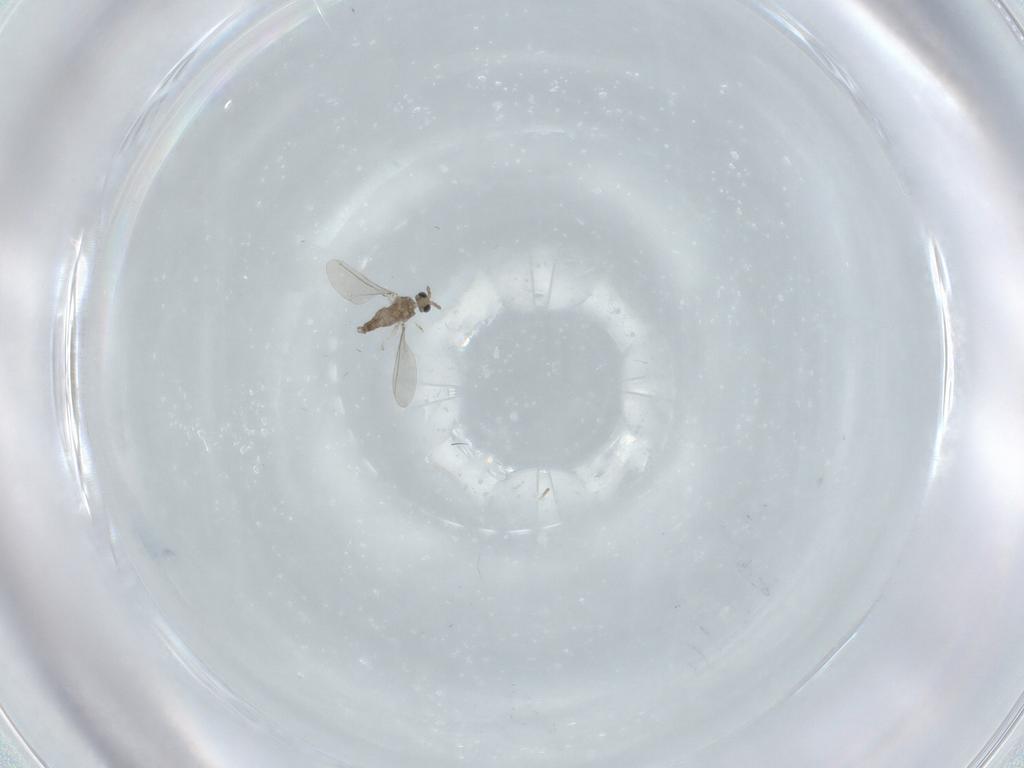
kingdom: Animalia
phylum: Arthropoda
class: Insecta
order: Diptera
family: Cecidomyiidae
